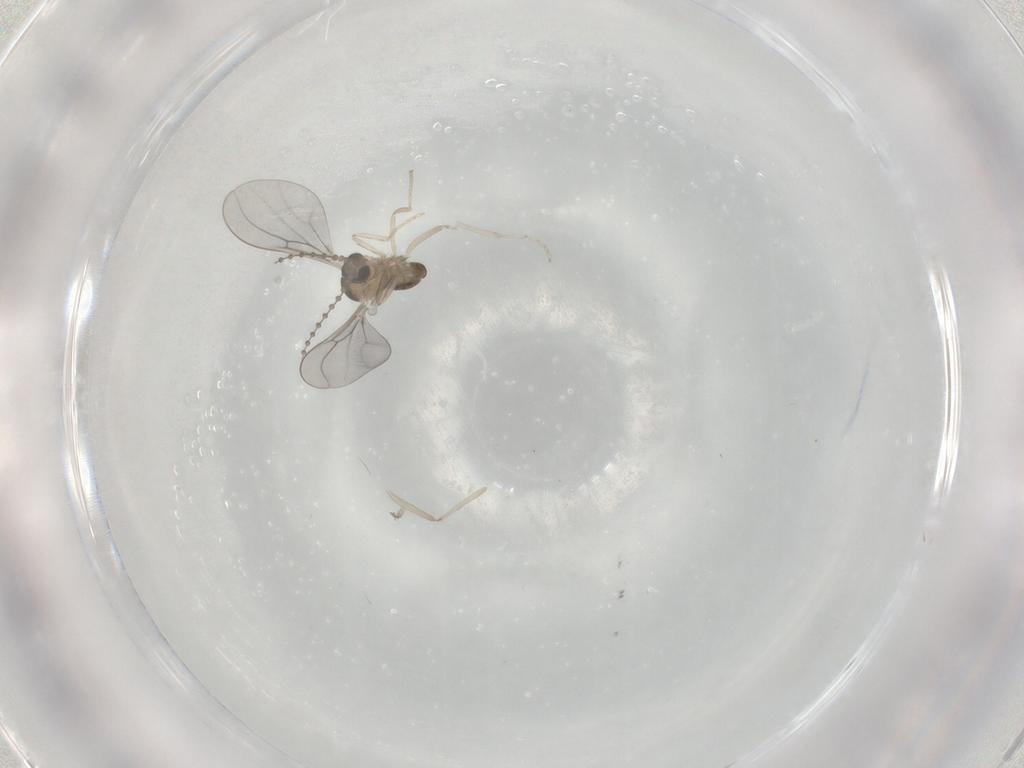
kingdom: Animalia
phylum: Arthropoda
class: Insecta
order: Diptera
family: Cecidomyiidae
